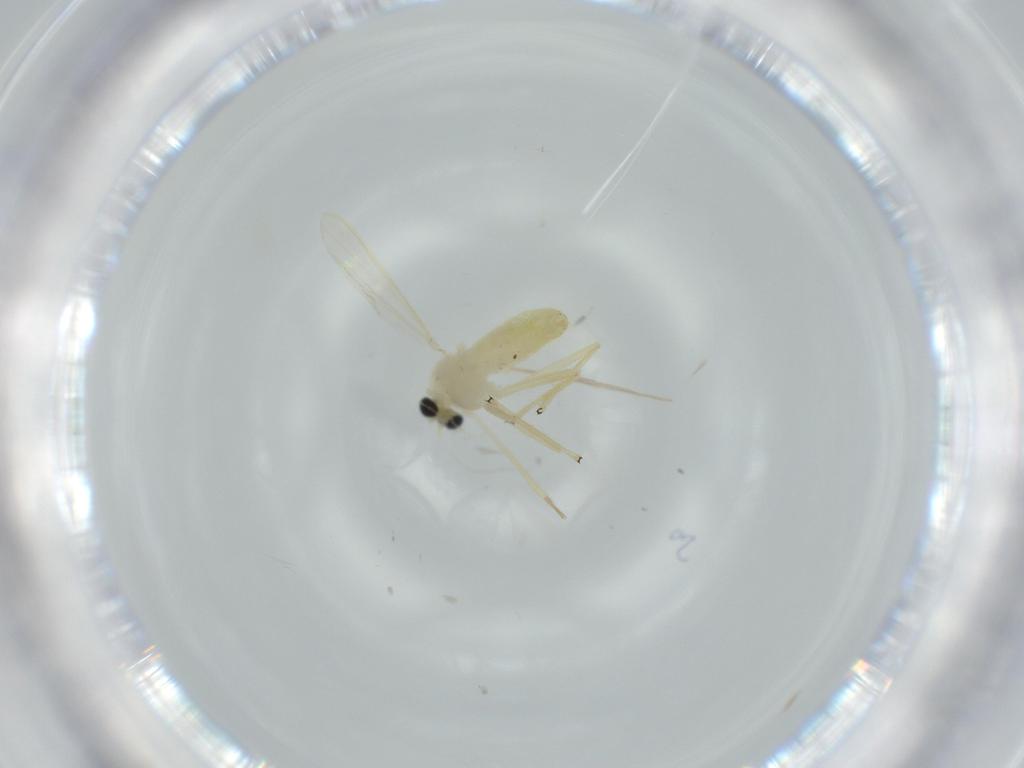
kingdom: Animalia
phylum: Arthropoda
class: Insecta
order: Diptera
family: Chironomidae
